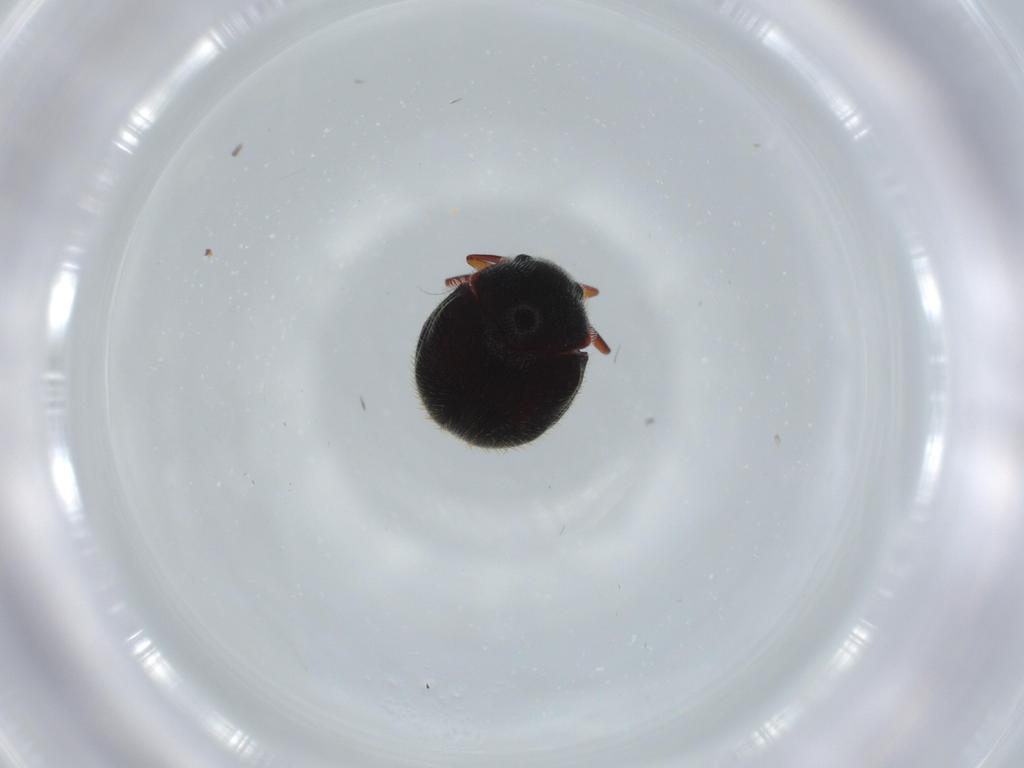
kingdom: Animalia
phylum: Arthropoda
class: Insecta
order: Coleoptera
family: Coccinellidae
